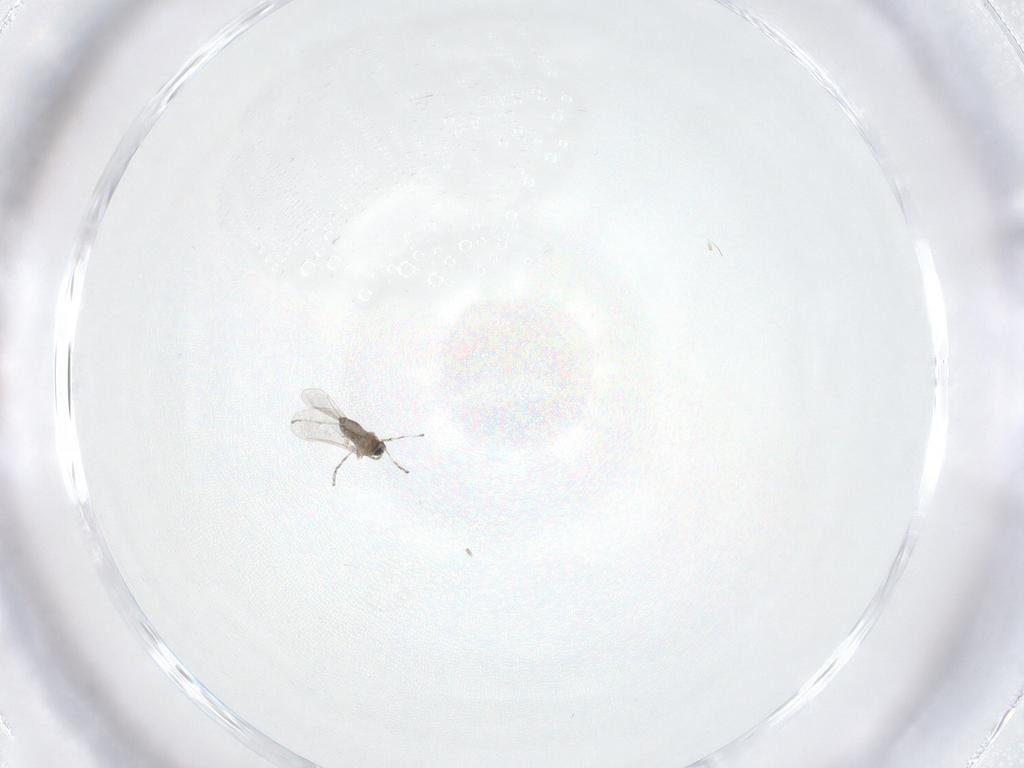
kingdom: Animalia
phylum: Arthropoda
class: Insecta
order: Diptera
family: Cecidomyiidae
